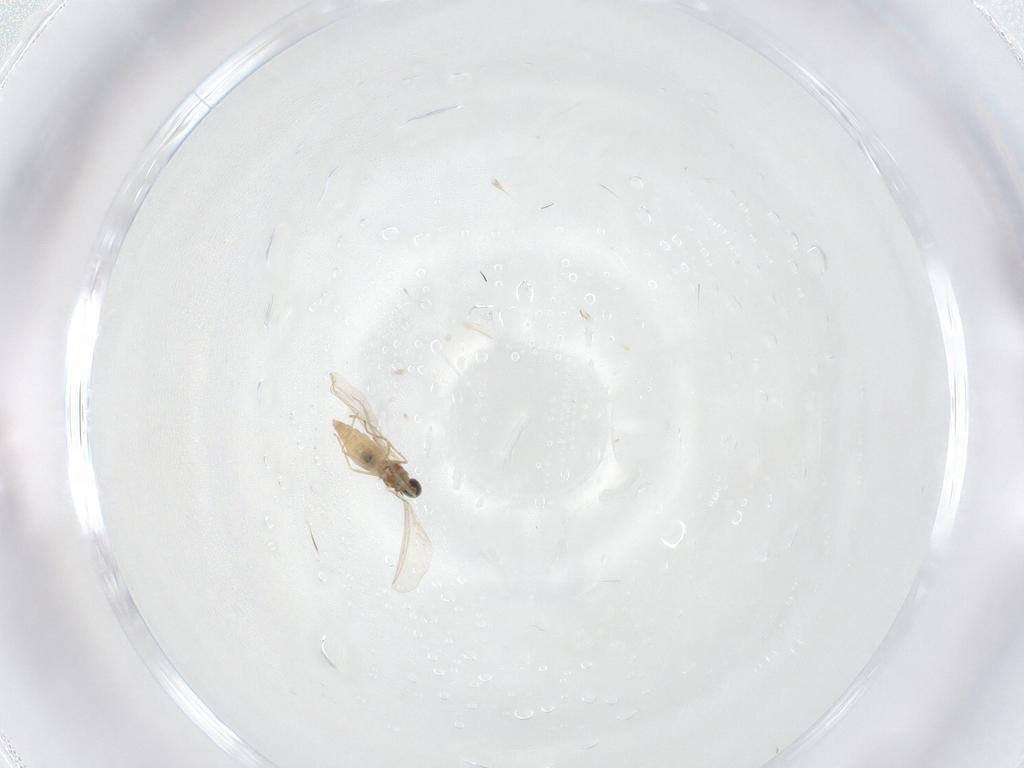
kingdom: Animalia
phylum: Arthropoda
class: Insecta
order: Diptera
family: Cecidomyiidae
